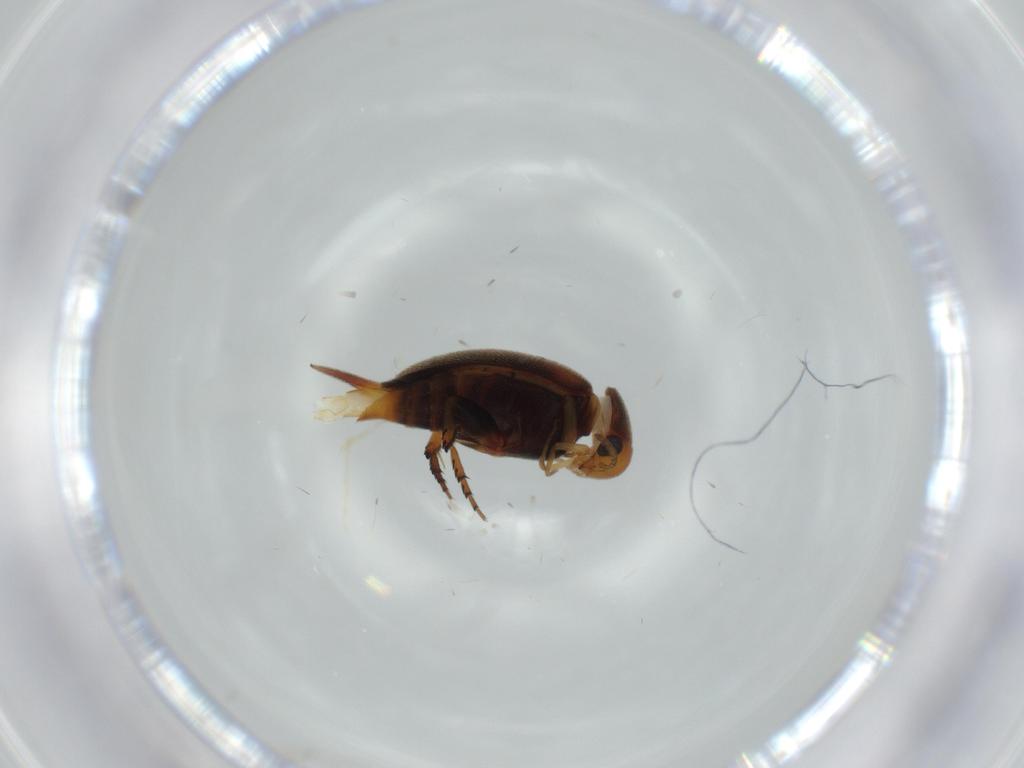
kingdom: Animalia
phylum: Arthropoda
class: Insecta
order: Coleoptera
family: Mordellidae
